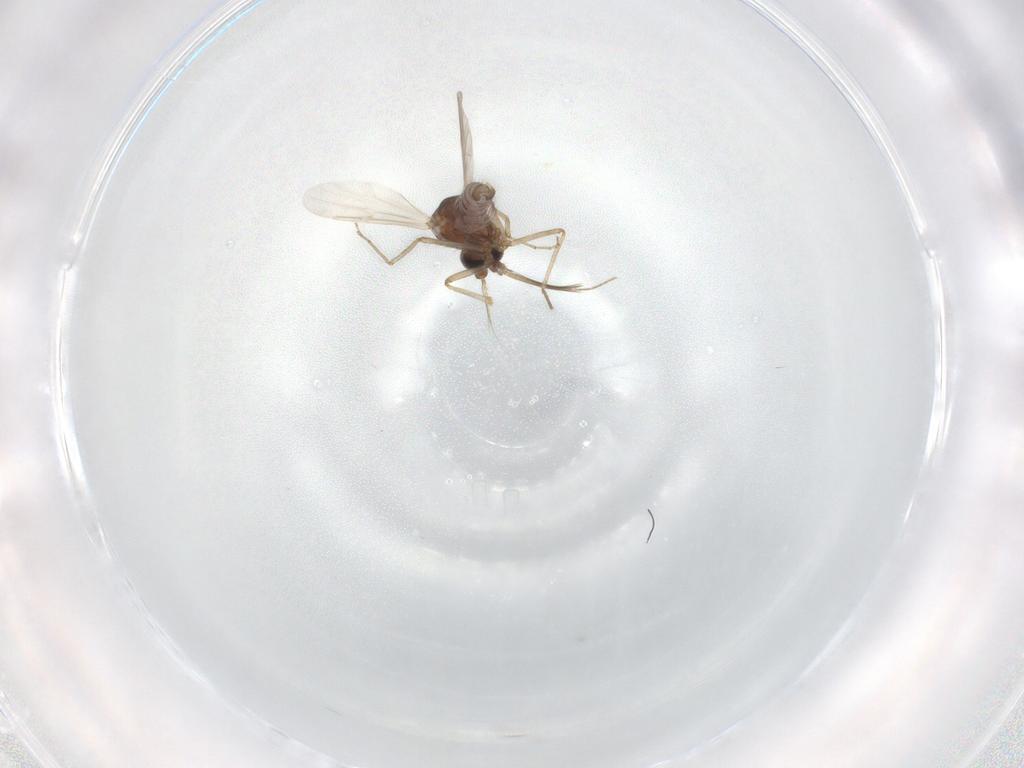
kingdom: Animalia
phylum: Arthropoda
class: Insecta
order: Diptera
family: Ceratopogonidae
